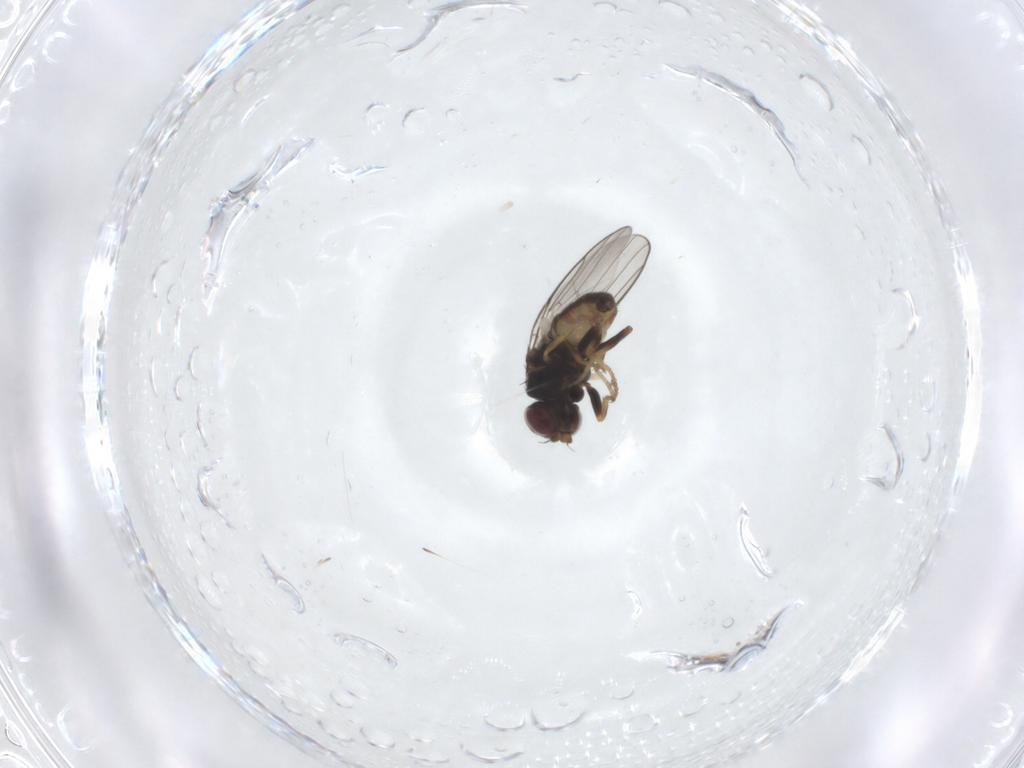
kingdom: Animalia
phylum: Arthropoda
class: Insecta
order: Diptera
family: Chloropidae
